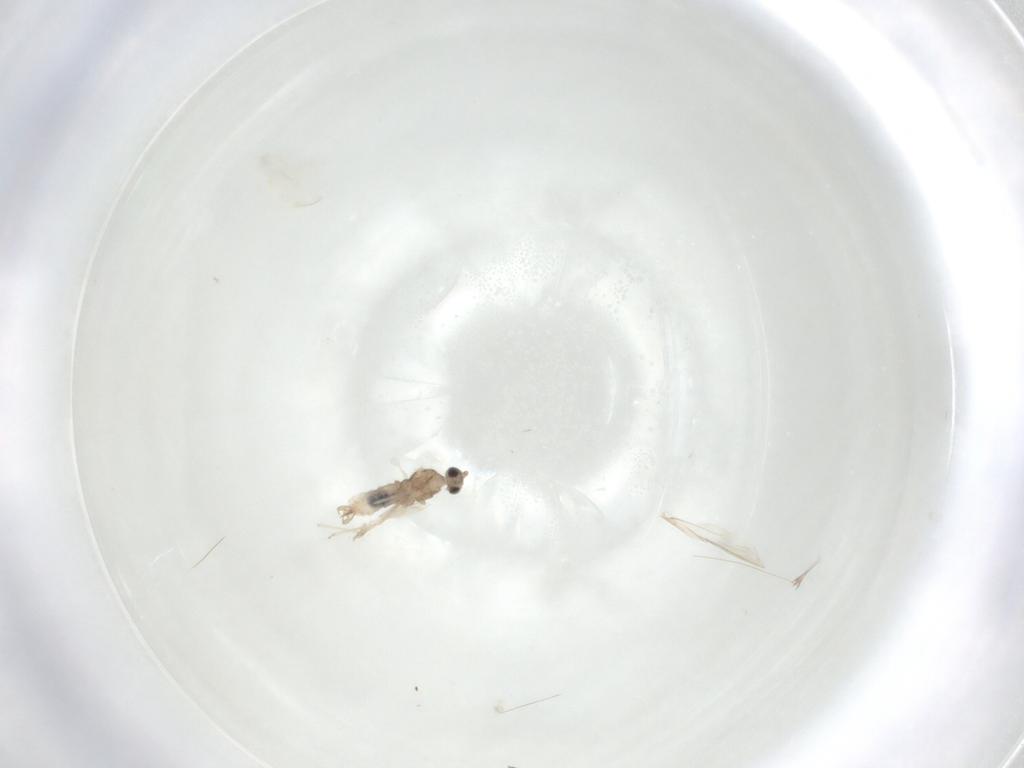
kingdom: Animalia
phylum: Arthropoda
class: Insecta
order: Diptera
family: Cecidomyiidae
